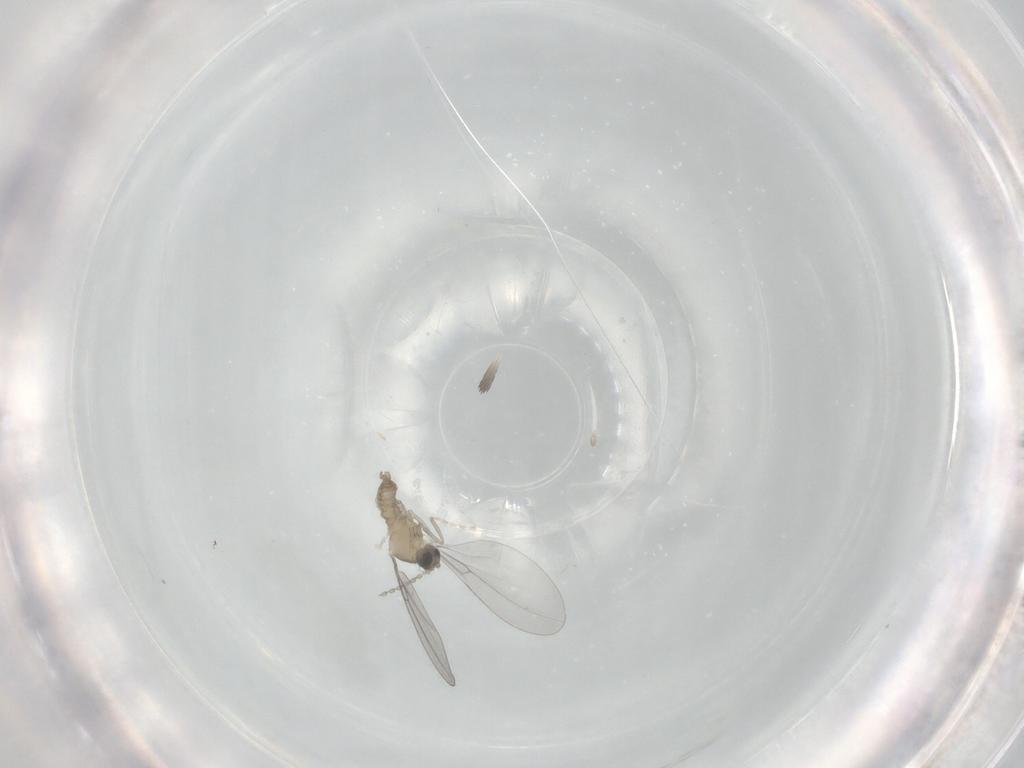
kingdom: Animalia
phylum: Arthropoda
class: Insecta
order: Diptera
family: Cecidomyiidae
